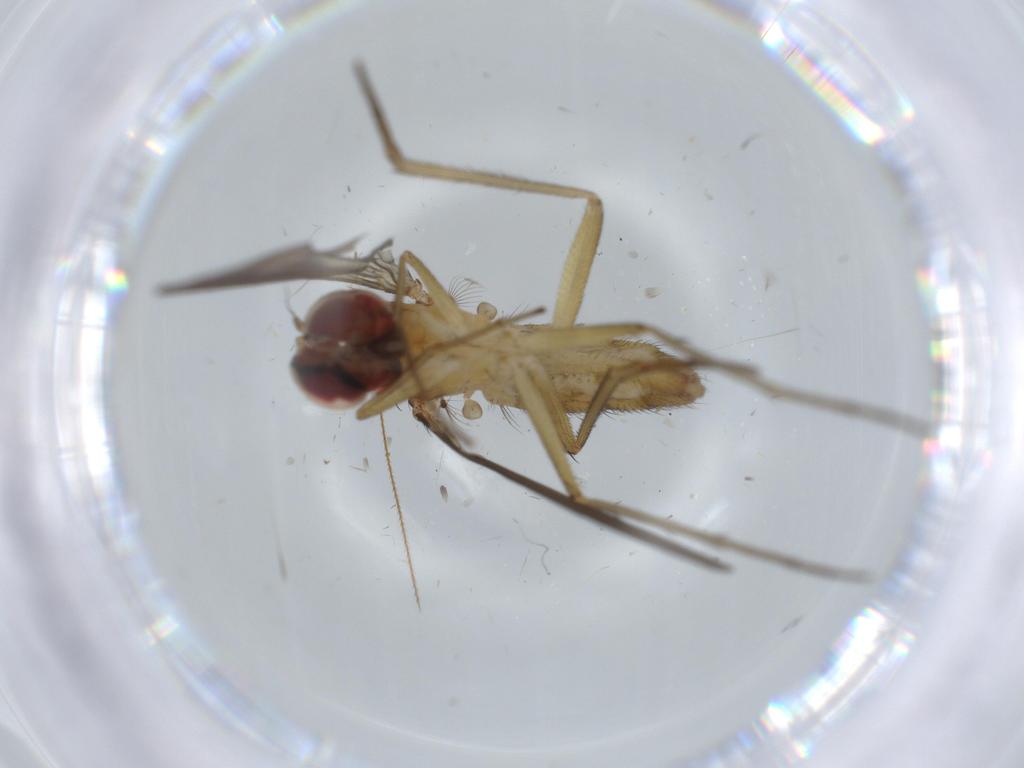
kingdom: Animalia
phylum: Arthropoda
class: Insecta
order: Diptera
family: Dolichopodidae
